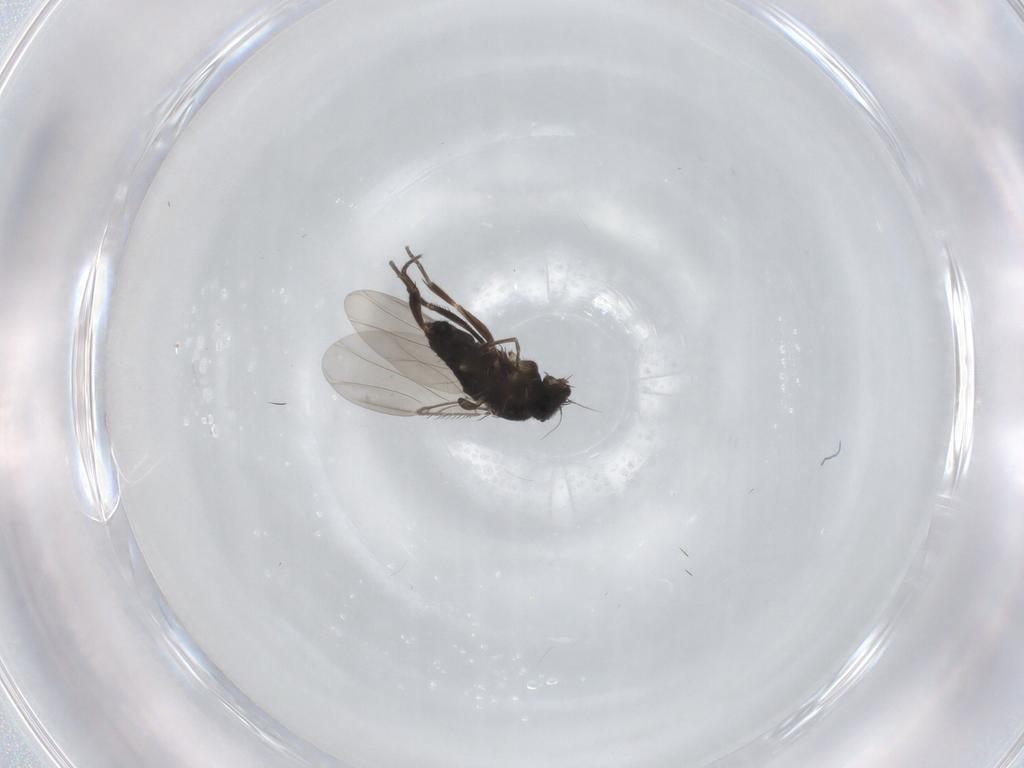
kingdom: Animalia
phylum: Arthropoda
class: Insecta
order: Diptera
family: Phoridae
